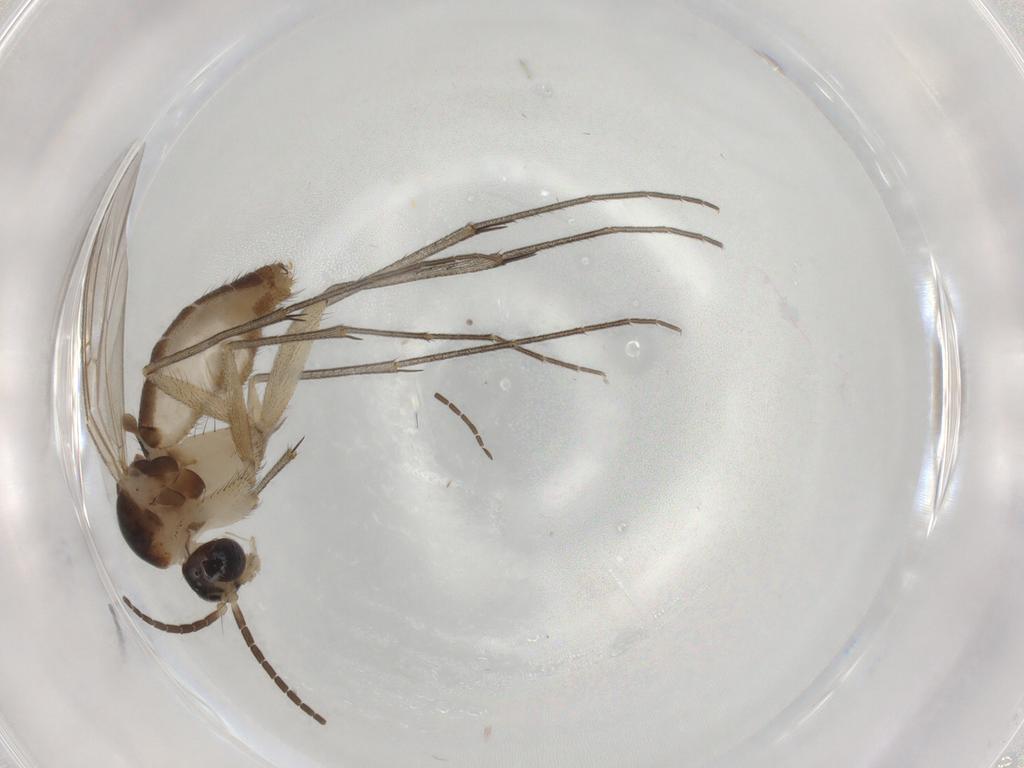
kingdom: Animalia
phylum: Arthropoda
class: Insecta
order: Diptera
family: Mycetophilidae
